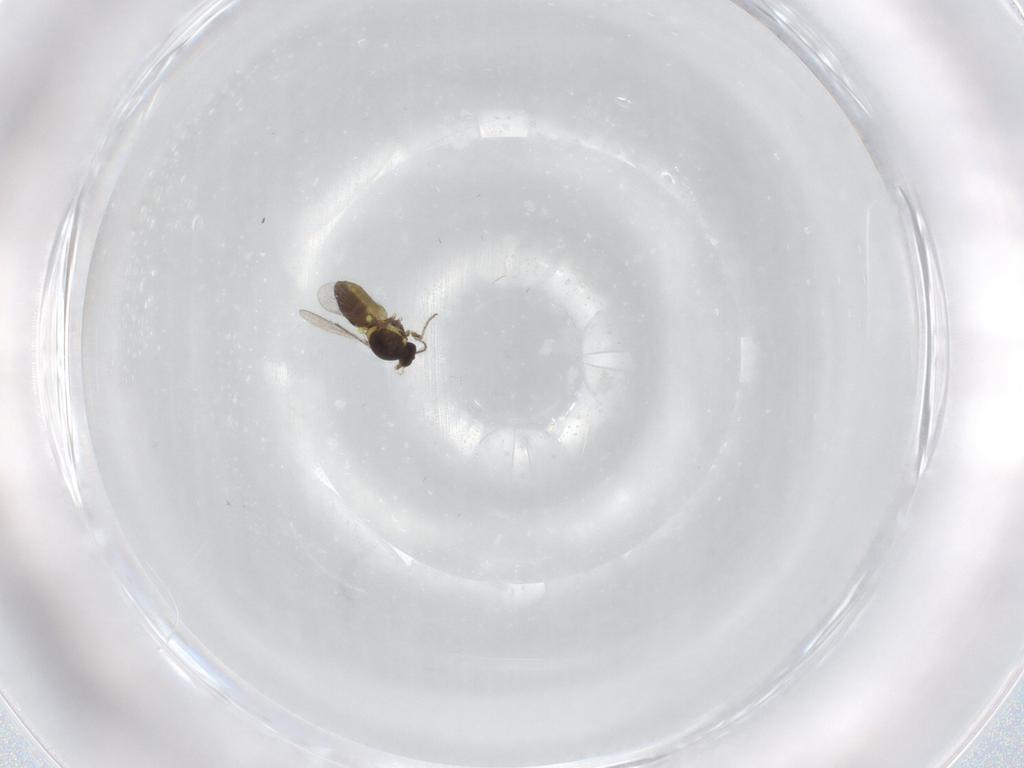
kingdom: Animalia
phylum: Arthropoda
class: Insecta
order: Diptera
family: Ceratopogonidae
